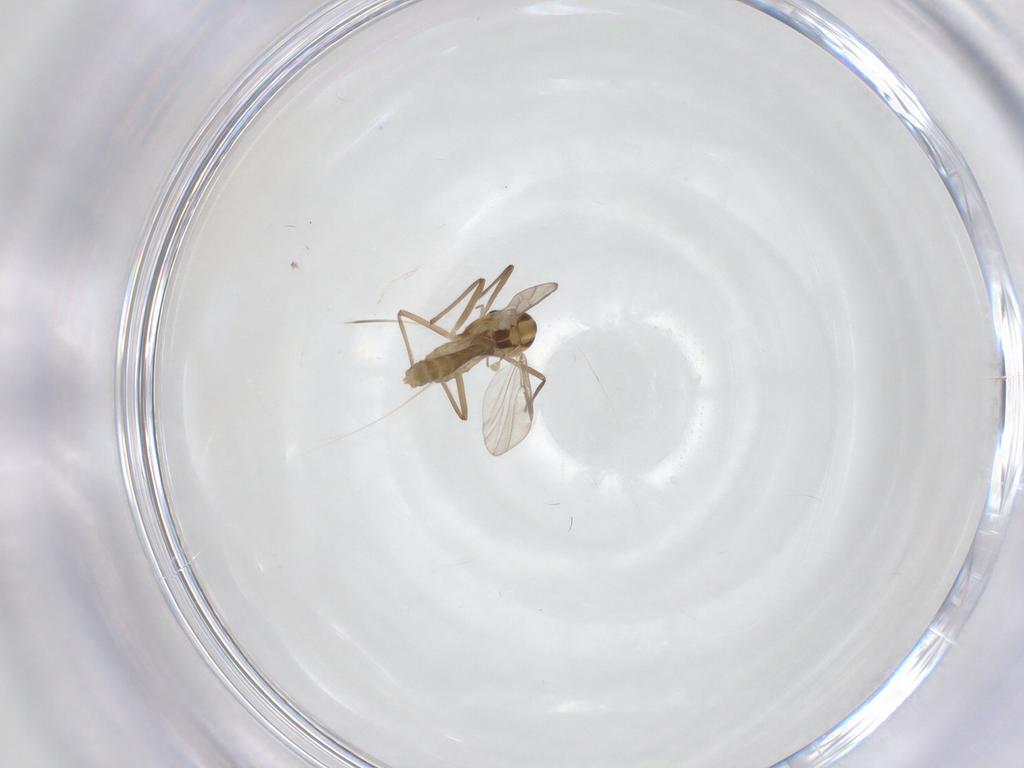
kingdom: Animalia
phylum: Arthropoda
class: Insecta
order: Diptera
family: Chironomidae
